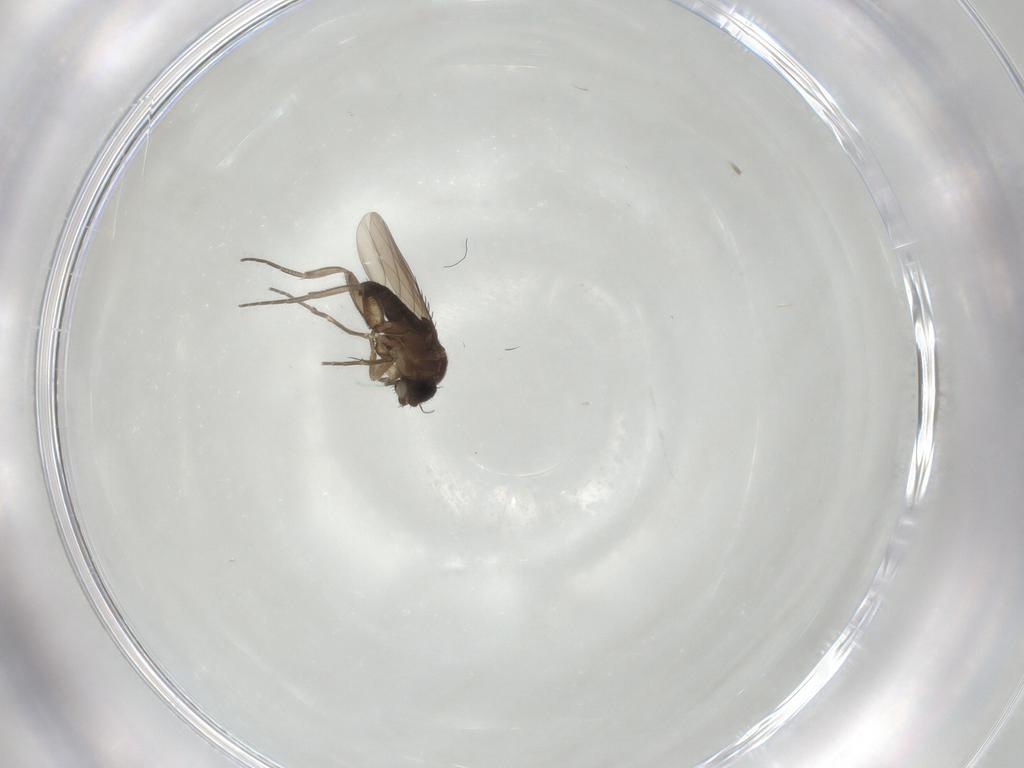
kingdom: Animalia
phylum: Arthropoda
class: Insecta
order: Diptera
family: Phoridae
